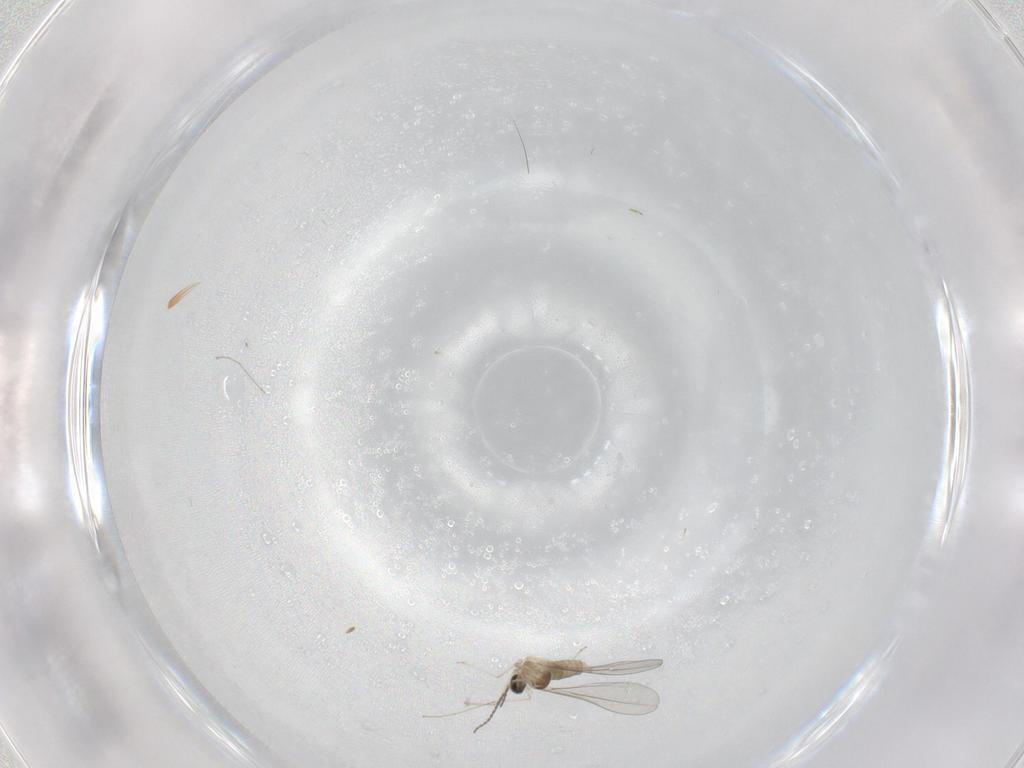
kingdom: Animalia
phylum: Arthropoda
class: Insecta
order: Diptera
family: Cecidomyiidae
